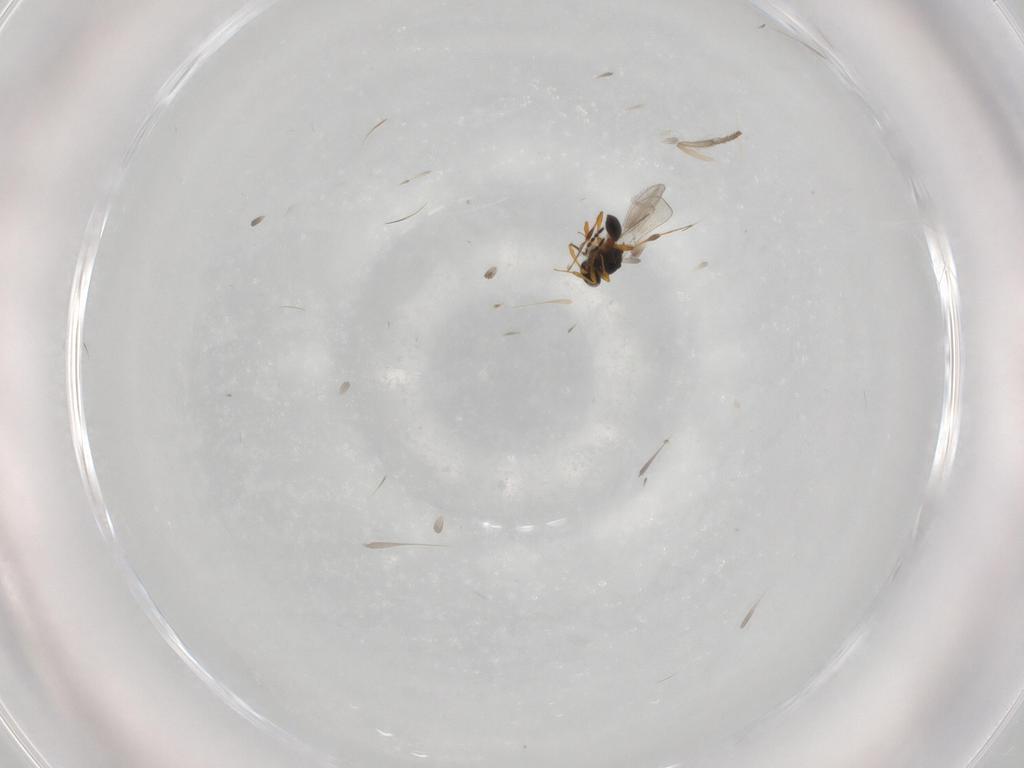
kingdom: Animalia
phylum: Arthropoda
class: Insecta
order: Hymenoptera
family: Platygastridae
